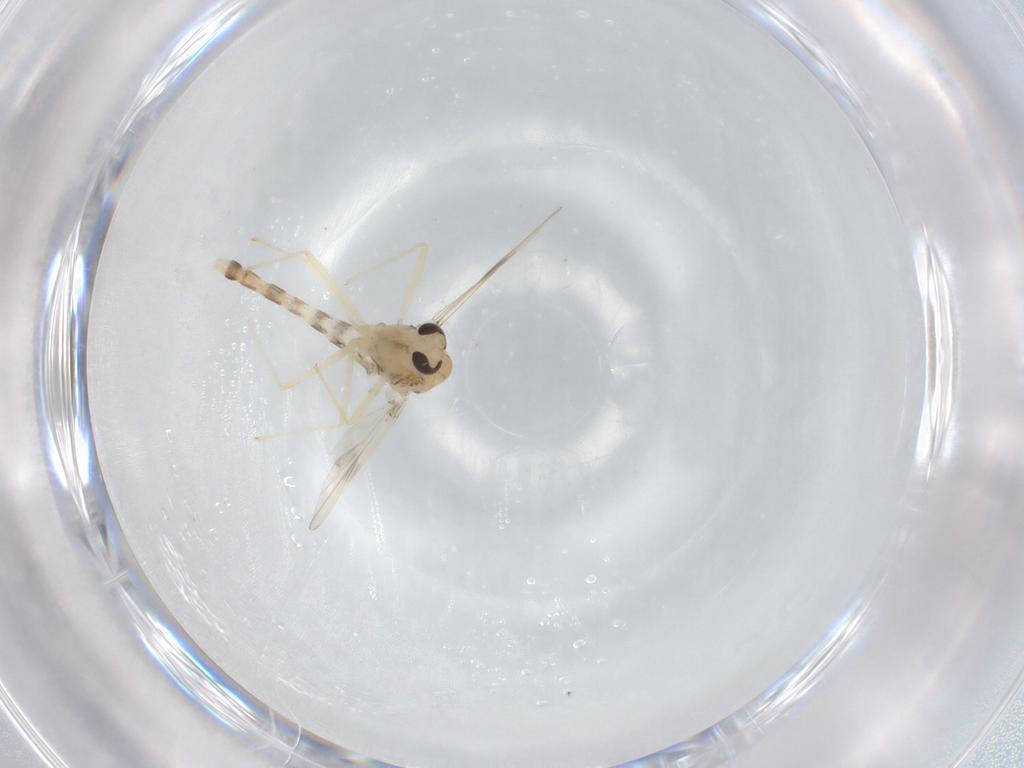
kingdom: Animalia
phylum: Arthropoda
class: Insecta
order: Diptera
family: Chironomidae
